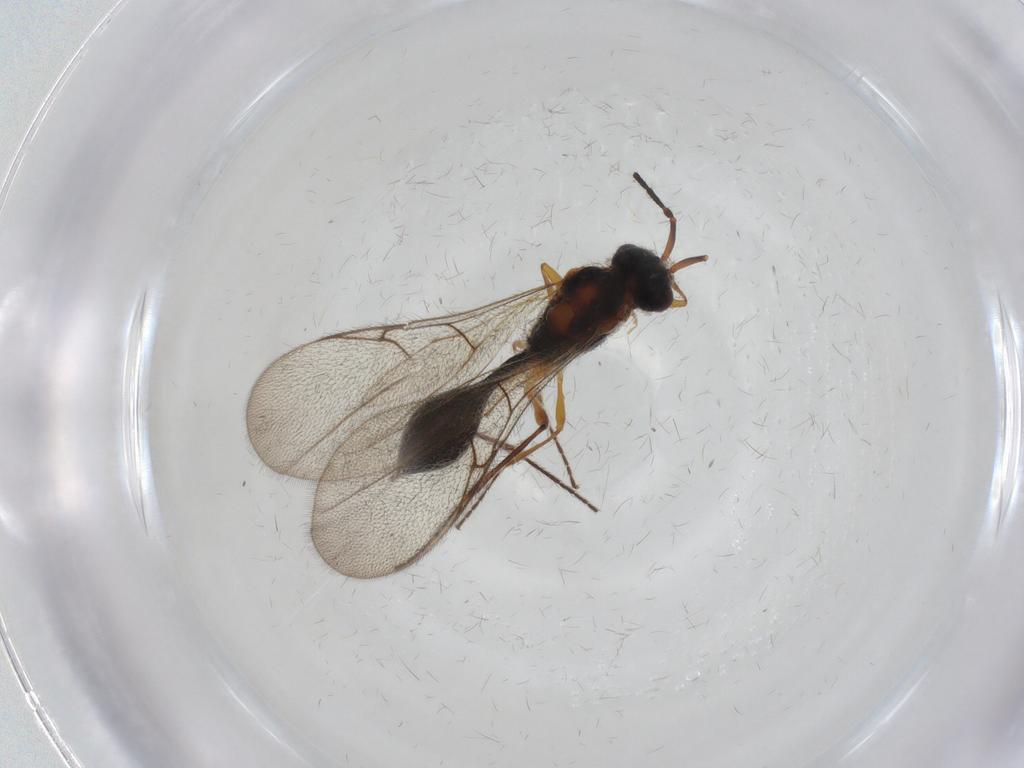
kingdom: Animalia
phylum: Arthropoda
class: Insecta
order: Hymenoptera
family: Diapriidae
